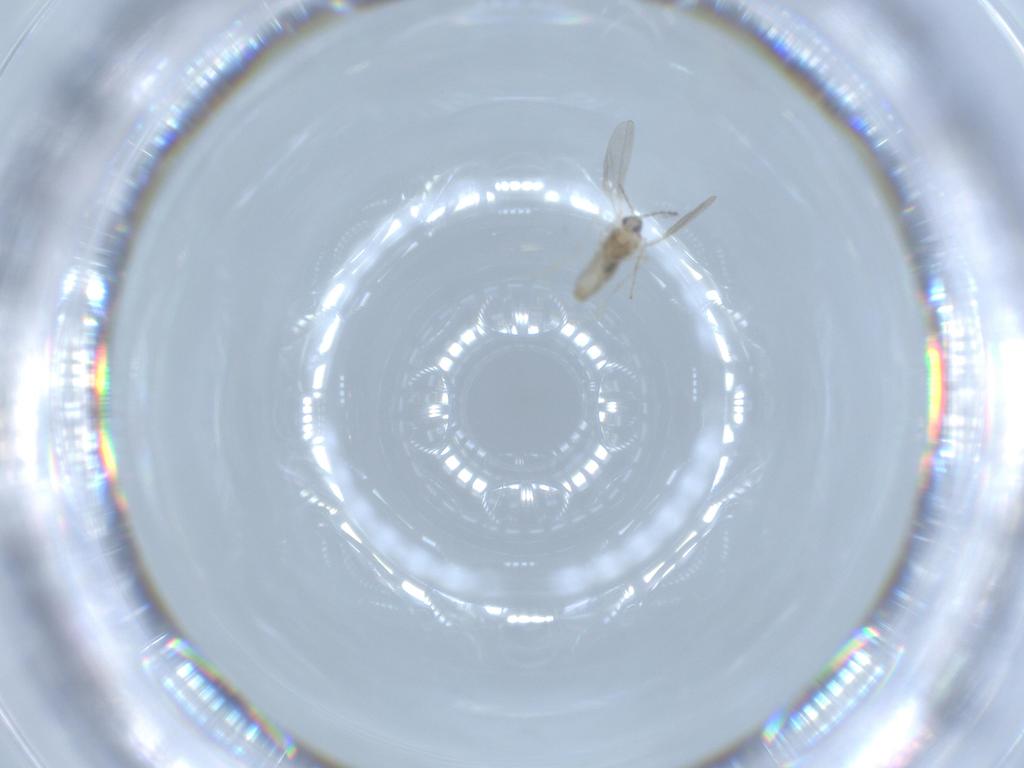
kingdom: Animalia
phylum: Arthropoda
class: Insecta
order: Diptera
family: Cecidomyiidae
